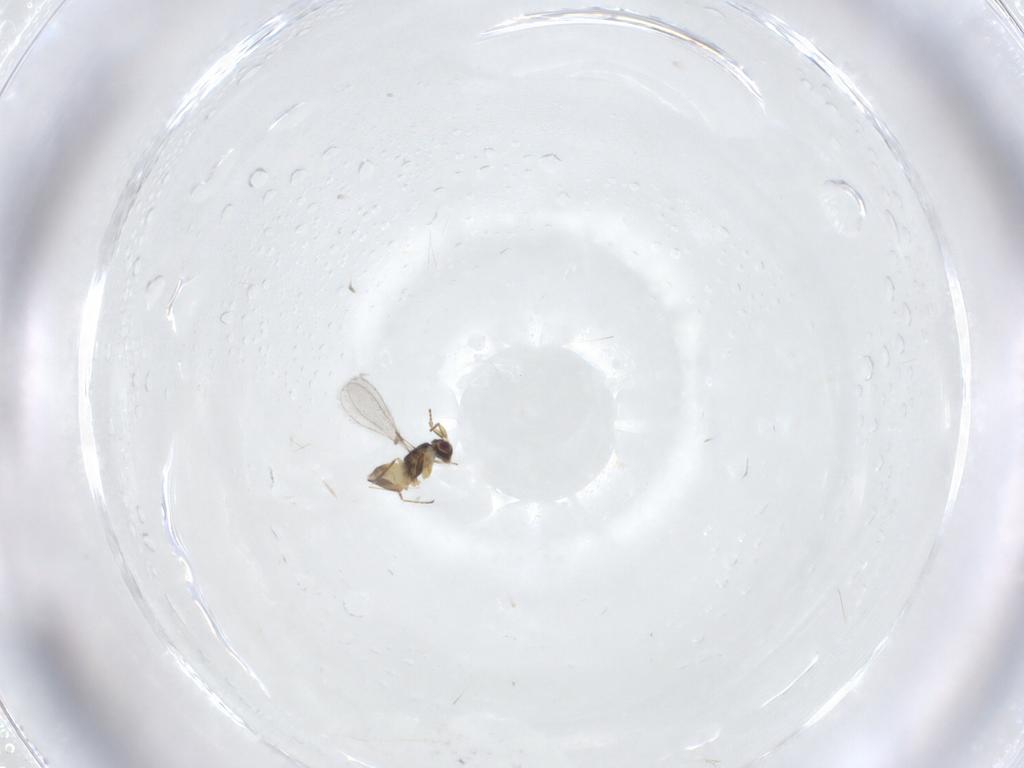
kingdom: Animalia
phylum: Arthropoda
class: Insecta
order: Hymenoptera
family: Mymaridae
